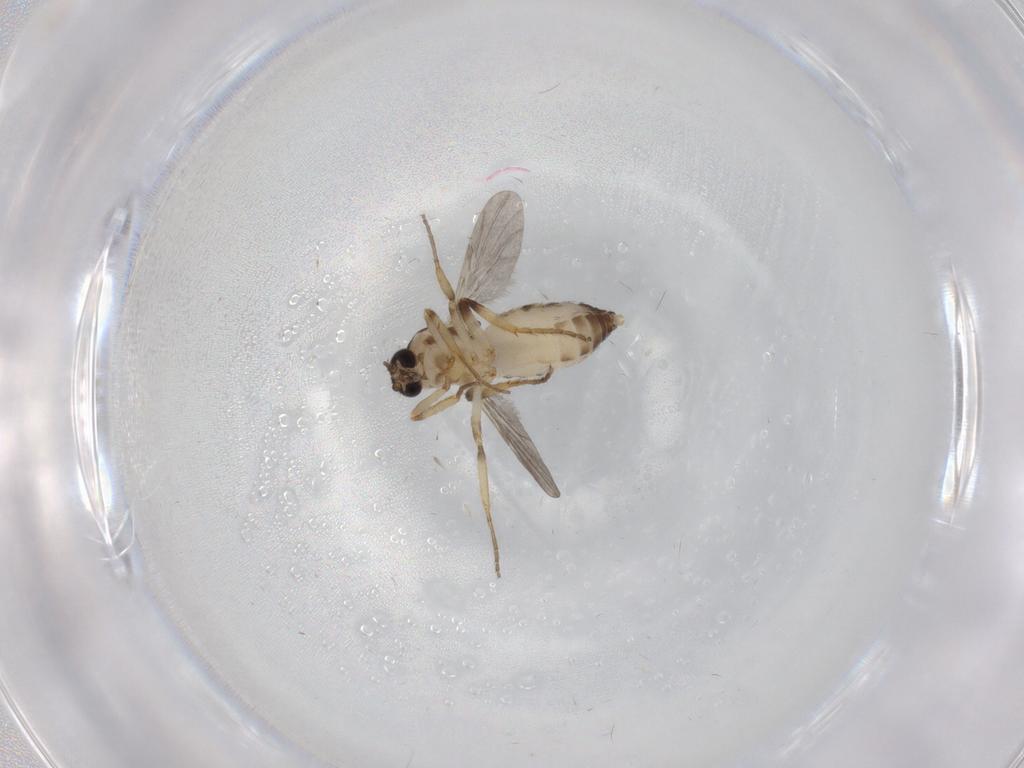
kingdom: Animalia
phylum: Arthropoda
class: Insecta
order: Diptera
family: Ceratopogonidae
